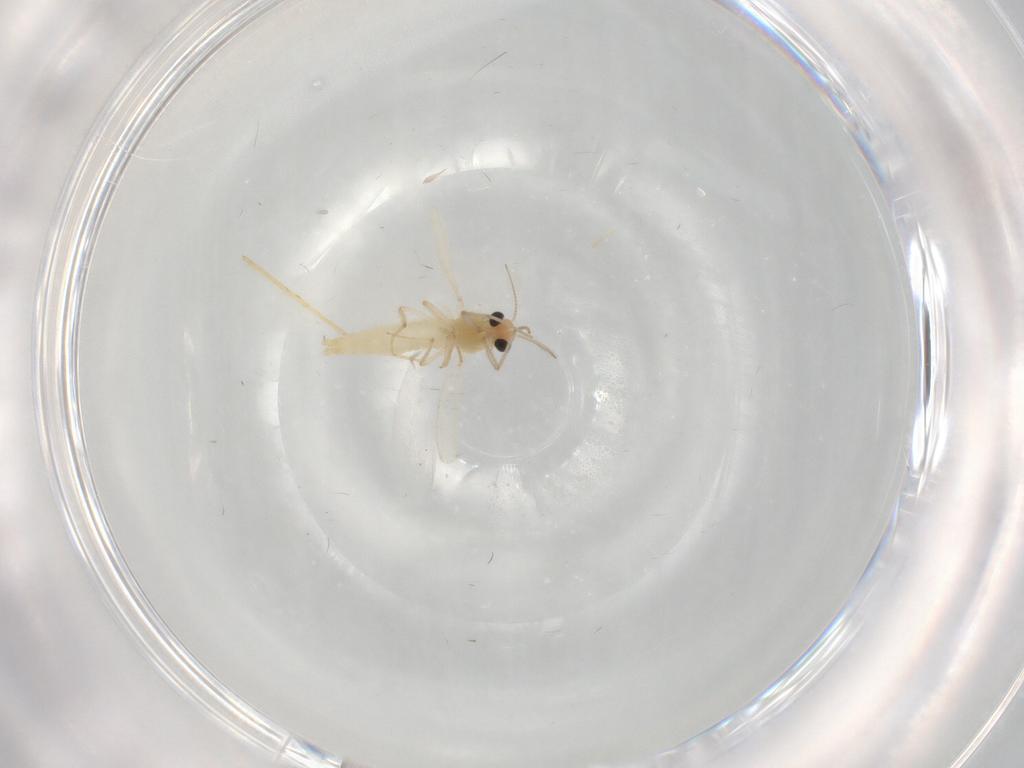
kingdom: Animalia
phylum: Arthropoda
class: Insecta
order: Diptera
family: Chironomidae
